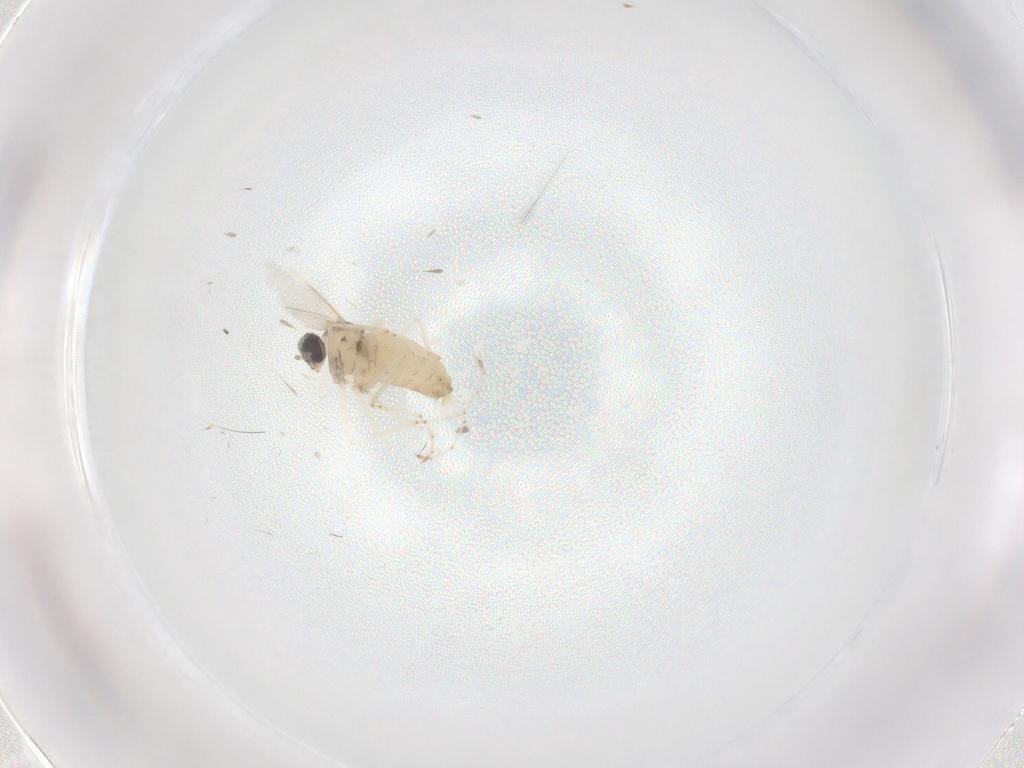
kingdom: Animalia
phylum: Arthropoda
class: Insecta
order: Diptera
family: Cecidomyiidae
